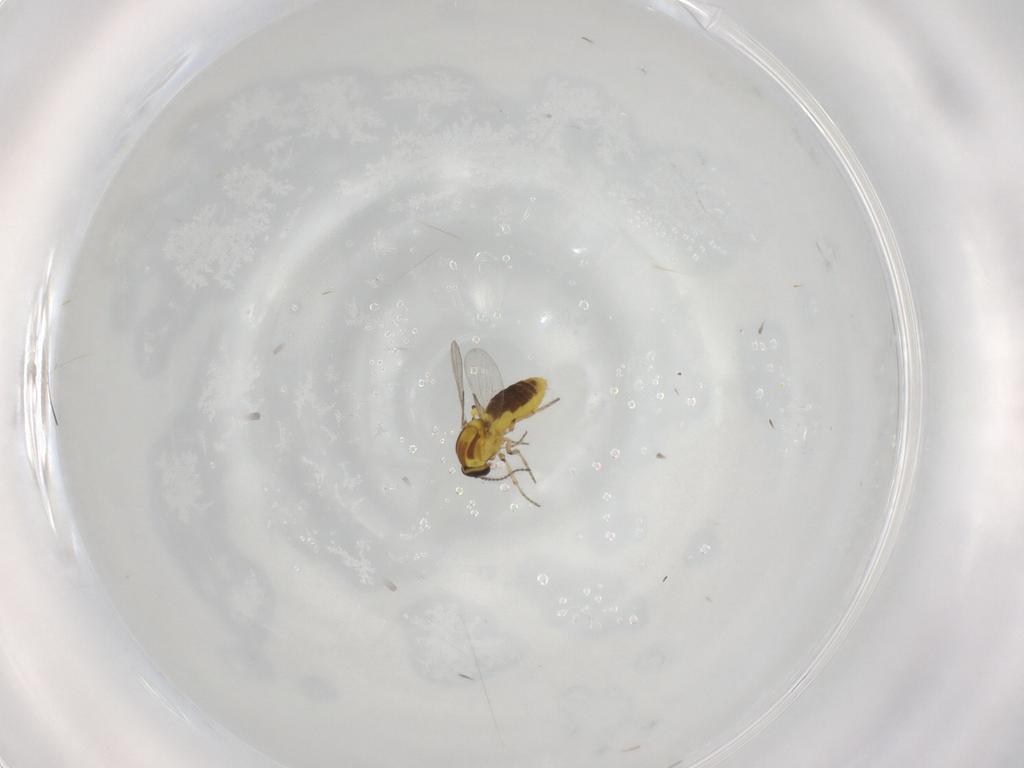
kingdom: Animalia
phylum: Arthropoda
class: Insecta
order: Diptera
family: Ceratopogonidae
